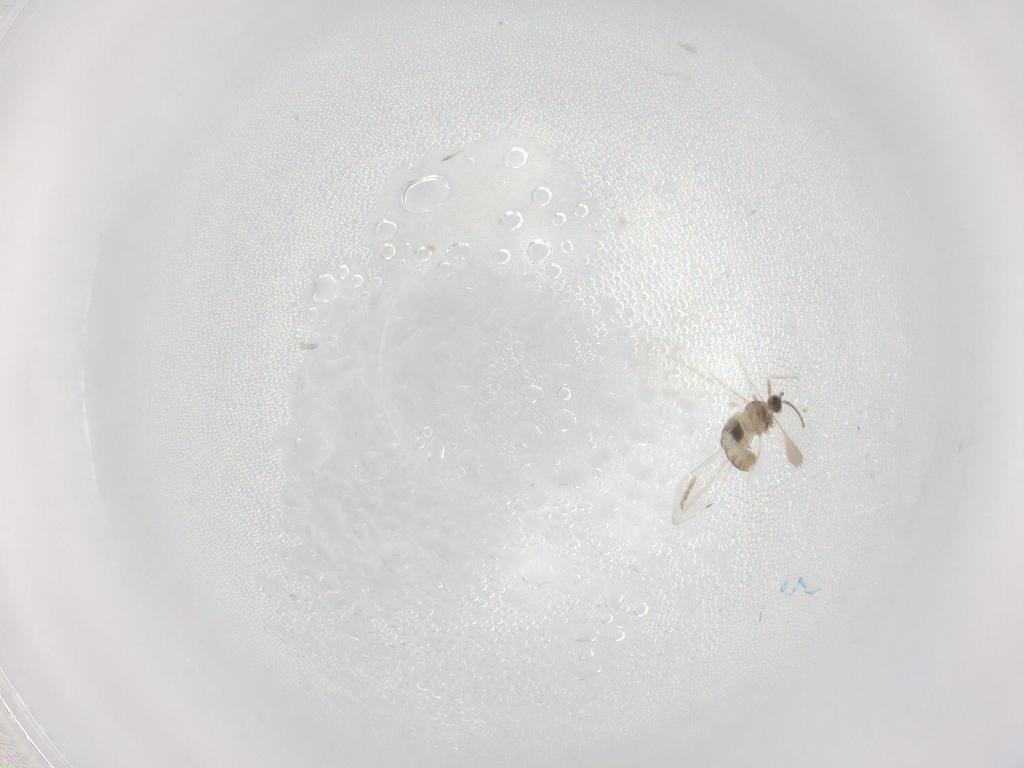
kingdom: Animalia
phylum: Arthropoda
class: Insecta
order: Diptera
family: Cecidomyiidae
